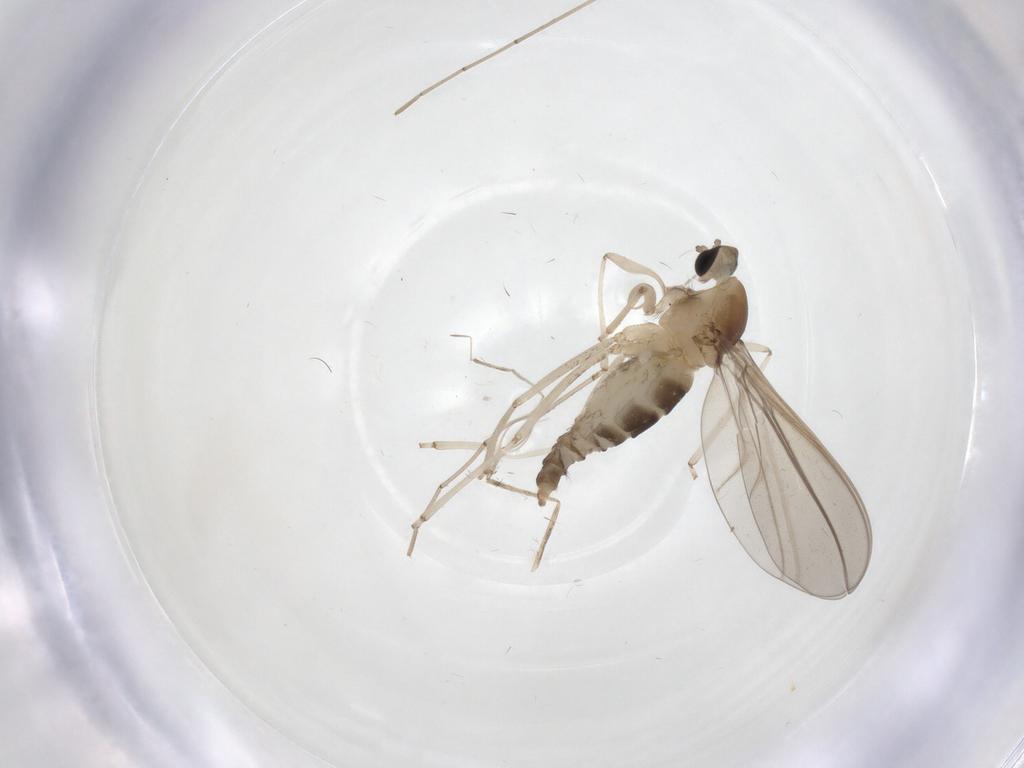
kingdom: Animalia
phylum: Arthropoda
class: Insecta
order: Diptera
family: Cecidomyiidae
